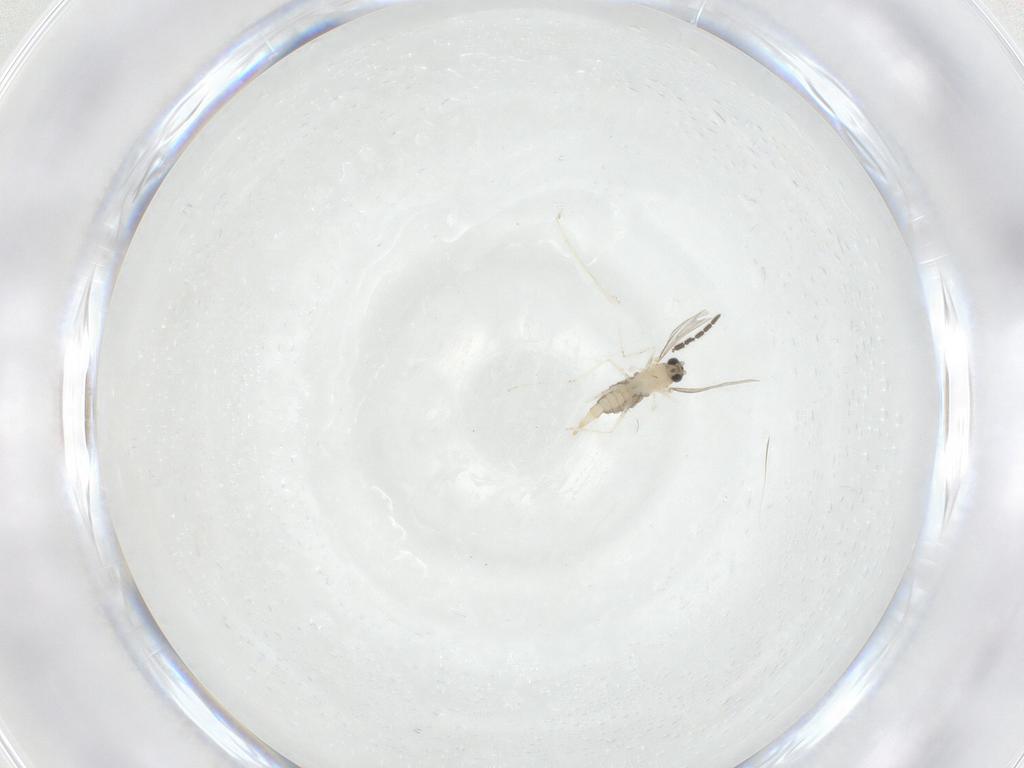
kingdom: Animalia
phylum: Arthropoda
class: Insecta
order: Diptera
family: Sciaridae
